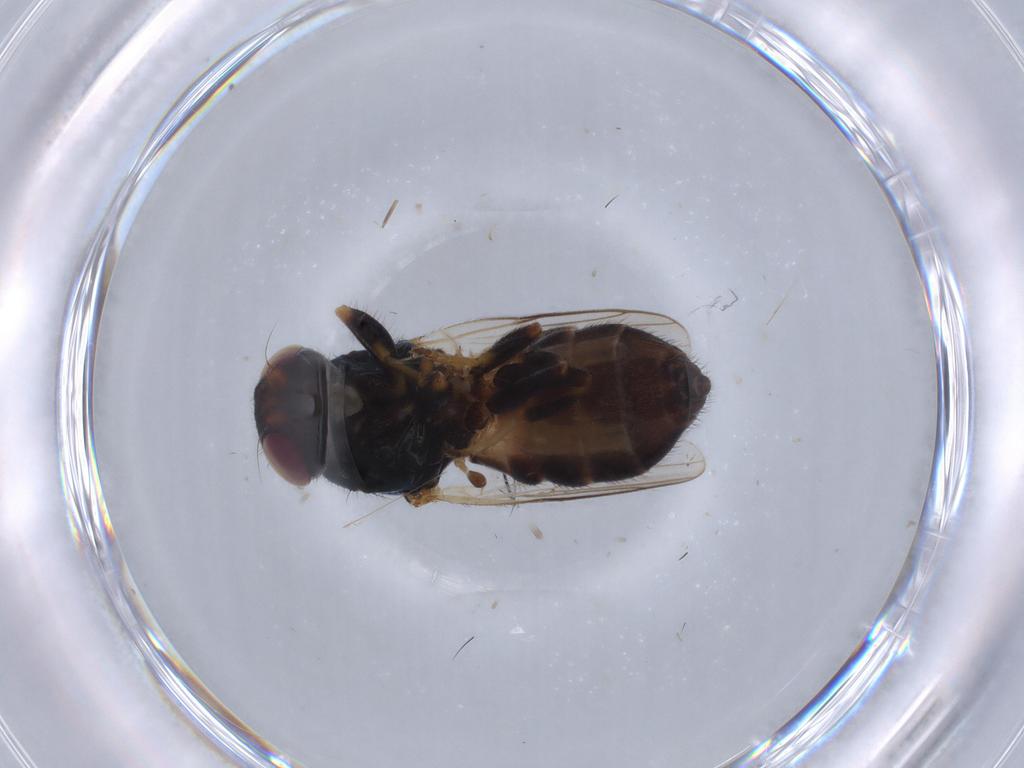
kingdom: Animalia
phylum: Arthropoda
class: Insecta
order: Diptera
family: Chloropidae
